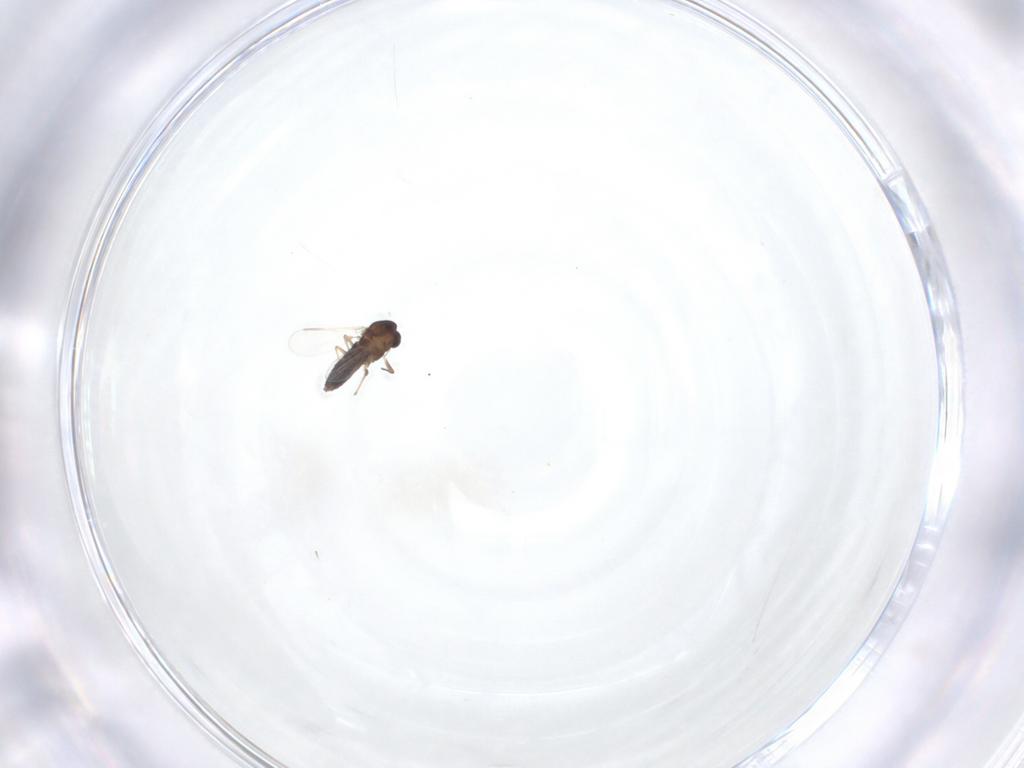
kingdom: Animalia
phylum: Arthropoda
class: Insecta
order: Diptera
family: Chironomidae
